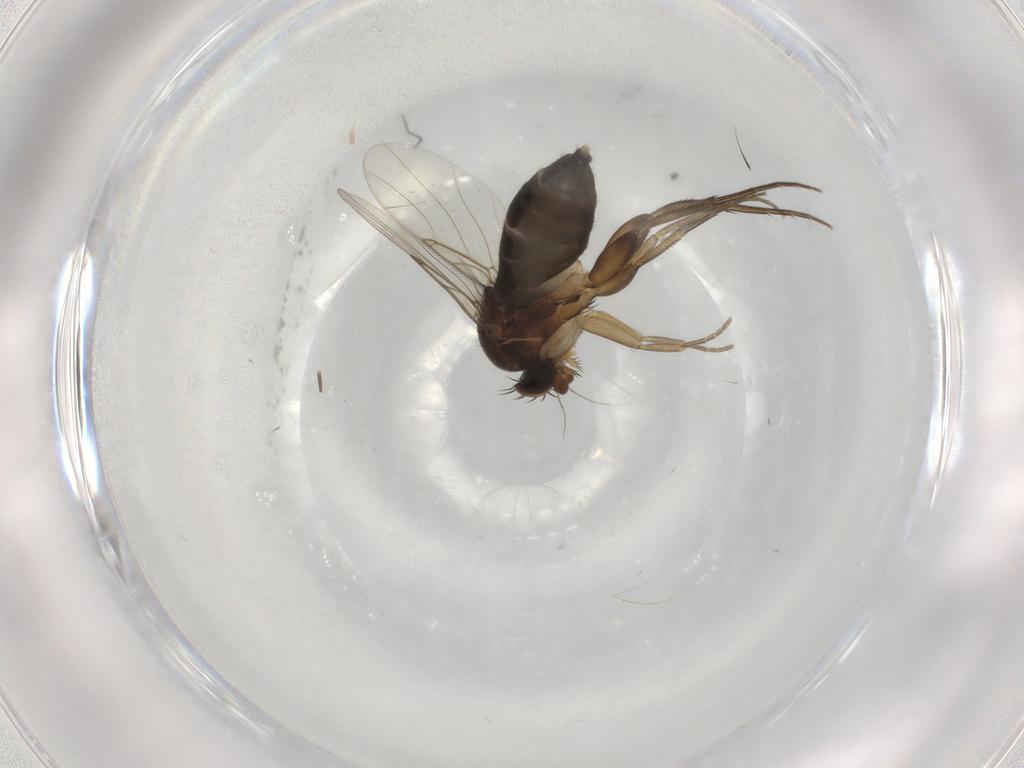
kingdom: Animalia
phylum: Arthropoda
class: Insecta
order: Diptera
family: Phoridae
